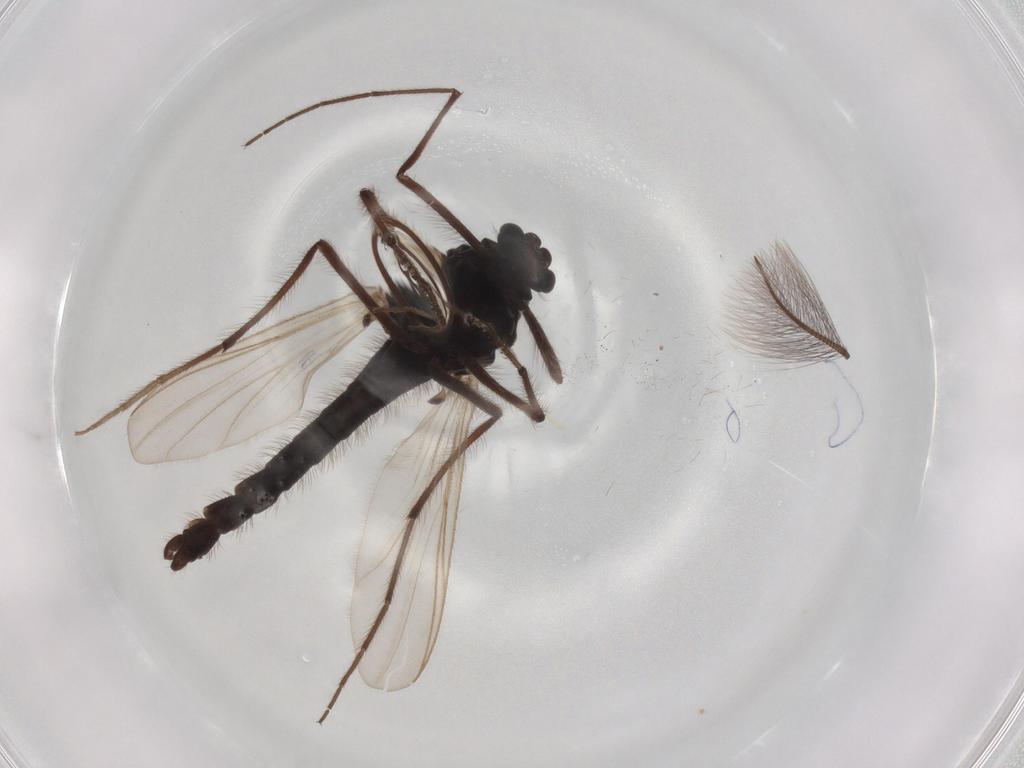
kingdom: Animalia
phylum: Arthropoda
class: Insecta
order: Diptera
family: Chironomidae
